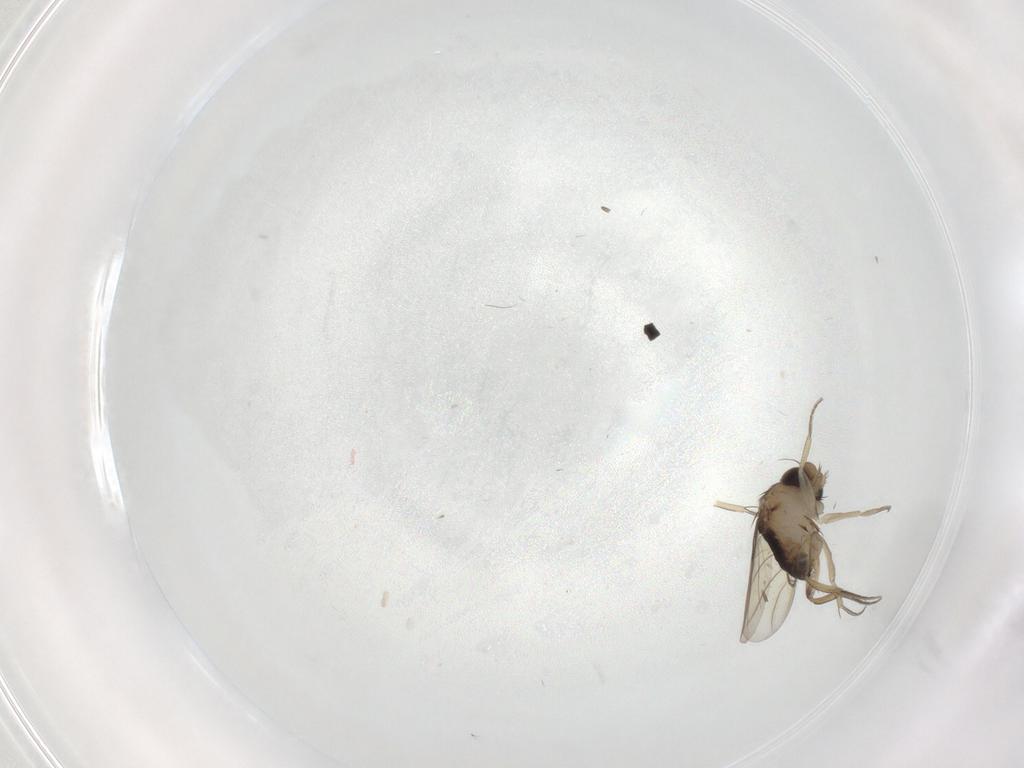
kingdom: Animalia
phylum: Arthropoda
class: Insecta
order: Diptera
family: Phoridae
